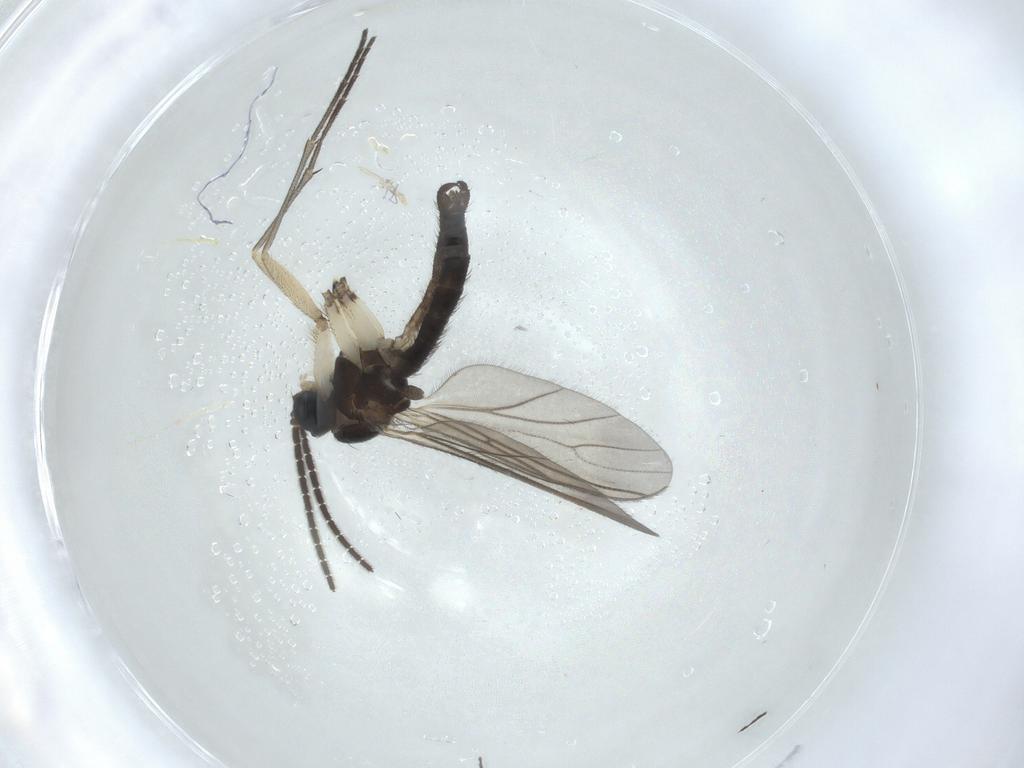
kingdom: Animalia
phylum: Arthropoda
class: Insecta
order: Diptera
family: Sciaridae
